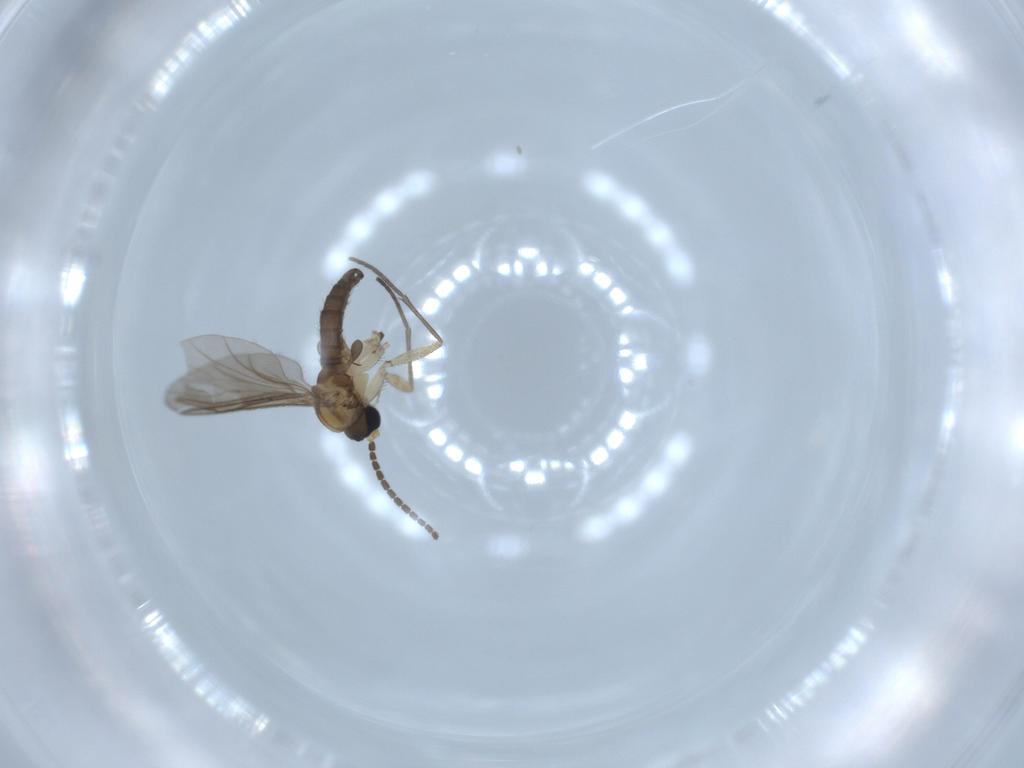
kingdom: Animalia
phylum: Arthropoda
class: Insecta
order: Diptera
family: Sciaridae
